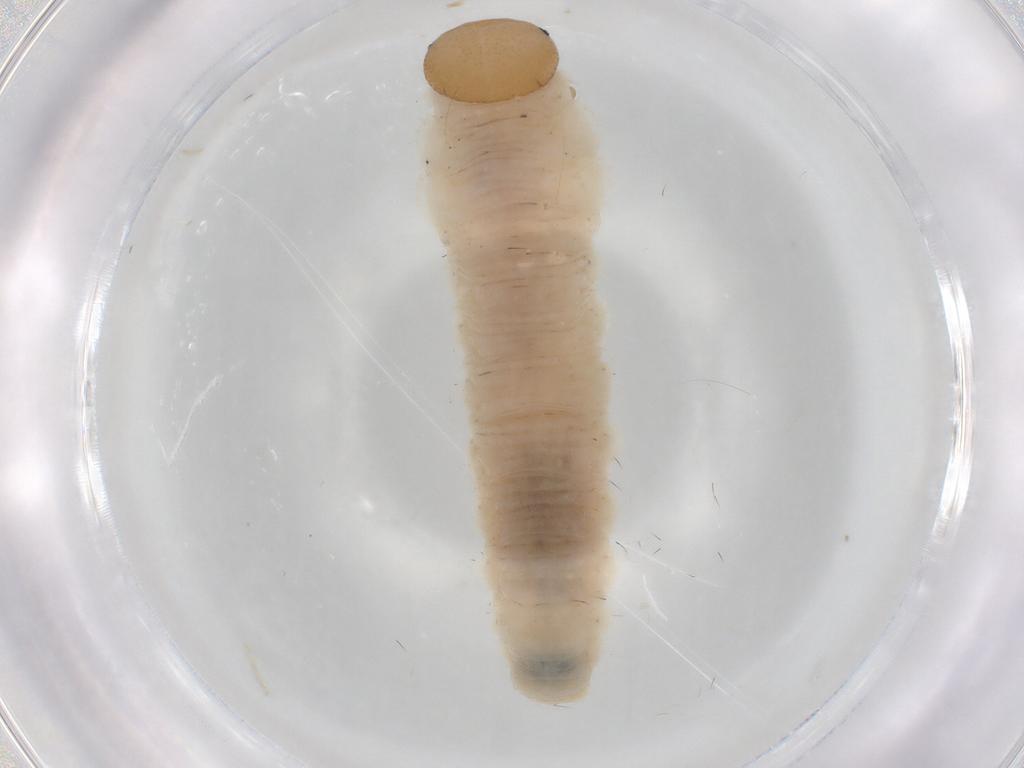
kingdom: Animalia
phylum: Arthropoda
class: Insecta
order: Hymenoptera
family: Tenthredinidae
